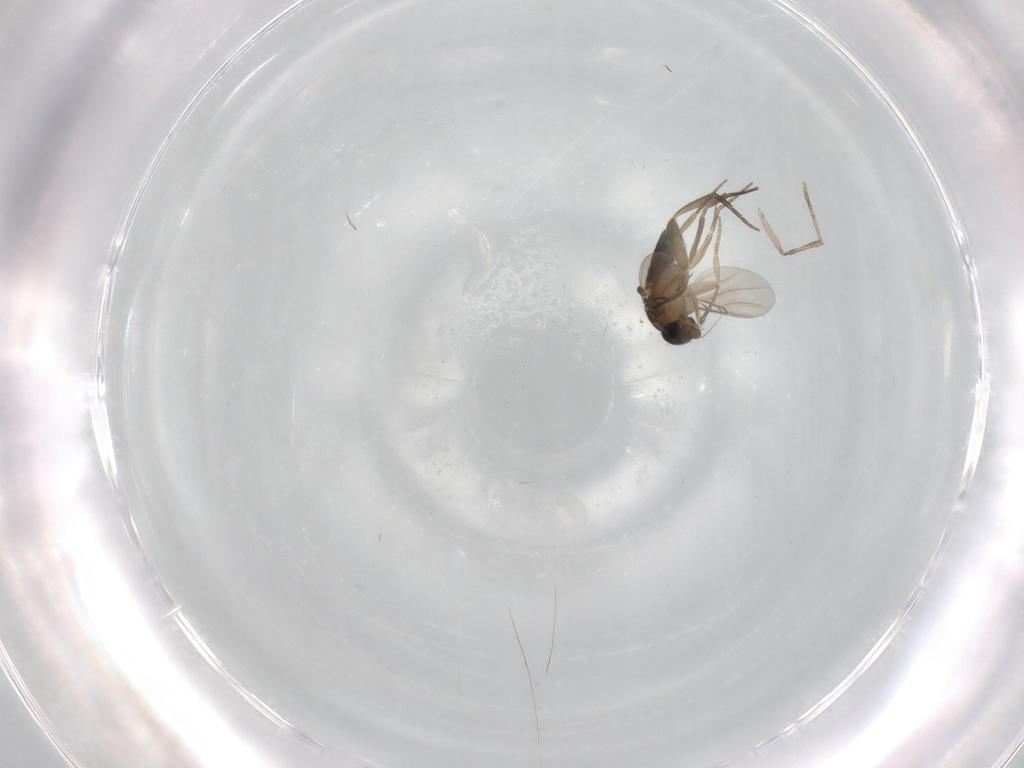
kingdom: Animalia
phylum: Arthropoda
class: Insecta
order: Diptera
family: Phoridae
